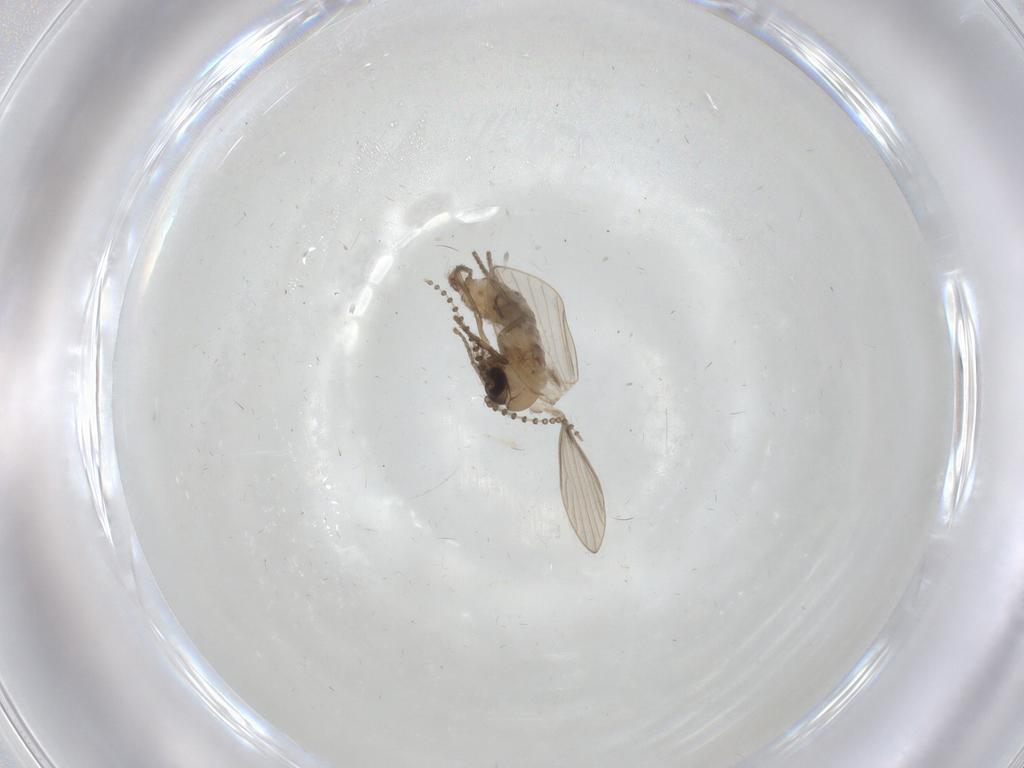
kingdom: Animalia
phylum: Arthropoda
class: Insecta
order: Diptera
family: Psychodidae
